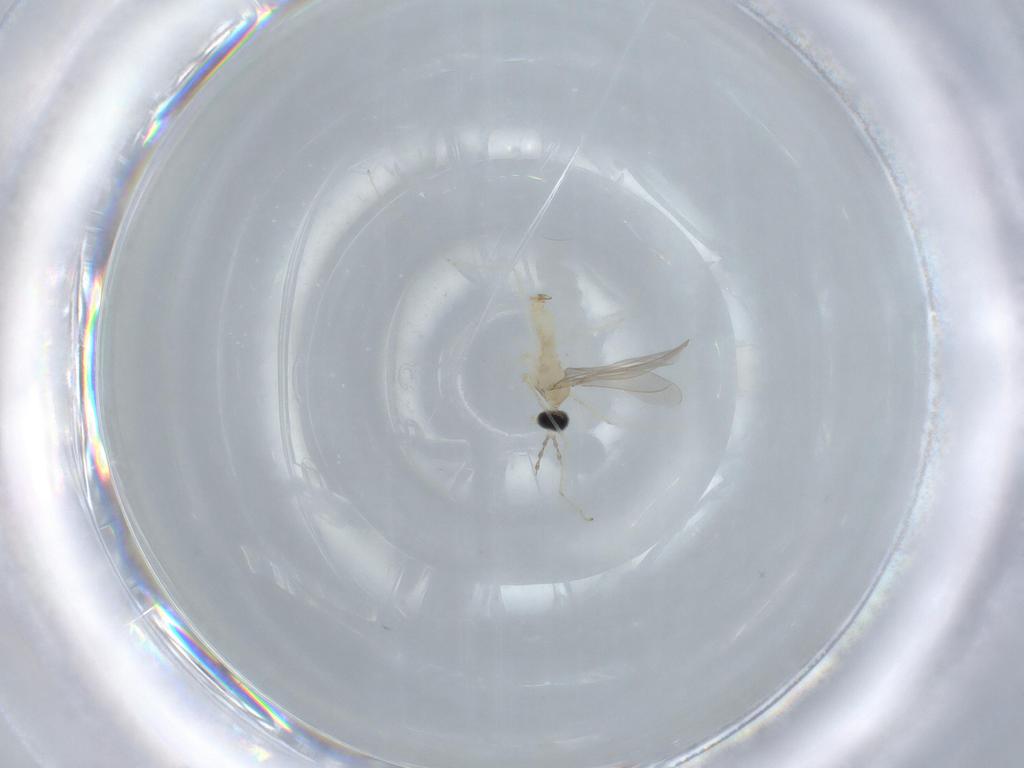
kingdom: Animalia
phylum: Arthropoda
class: Insecta
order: Diptera
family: Cecidomyiidae
